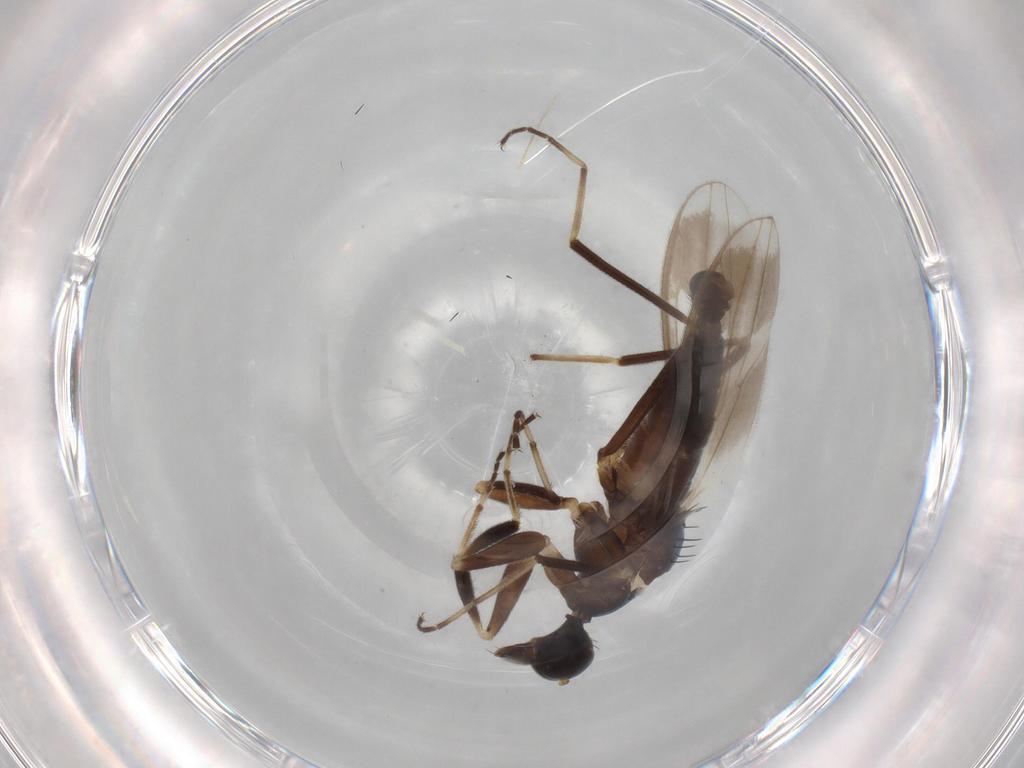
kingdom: Animalia
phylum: Arthropoda
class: Insecta
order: Diptera
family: Hybotidae
